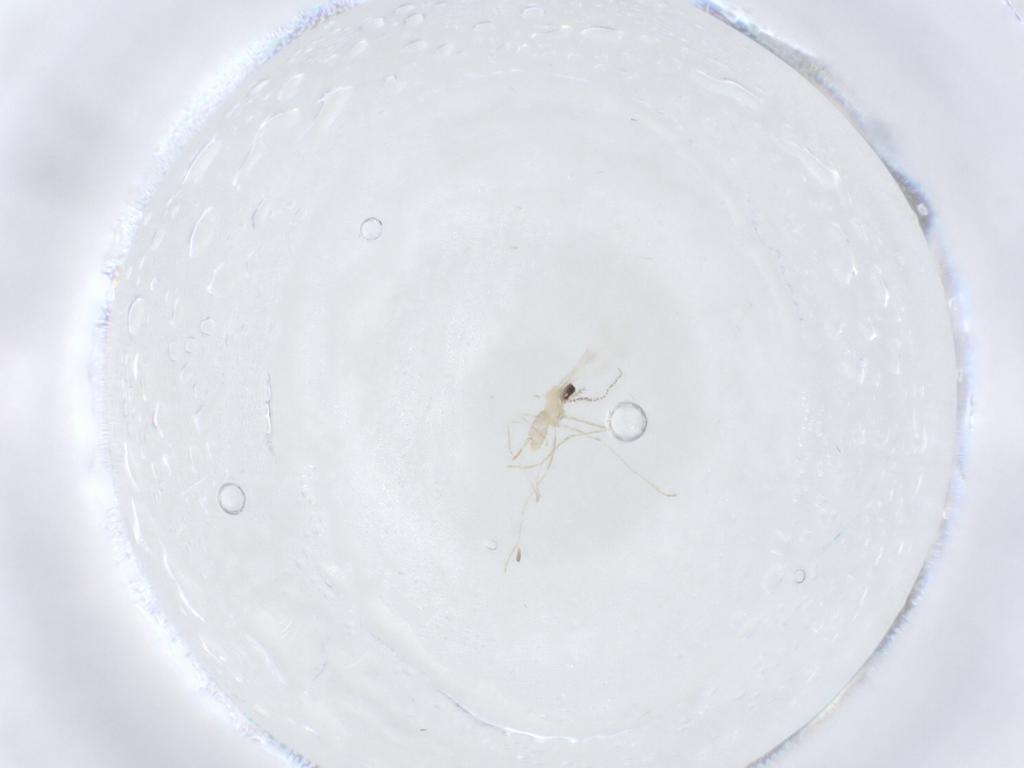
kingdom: Animalia
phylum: Arthropoda
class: Insecta
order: Diptera
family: Cecidomyiidae
